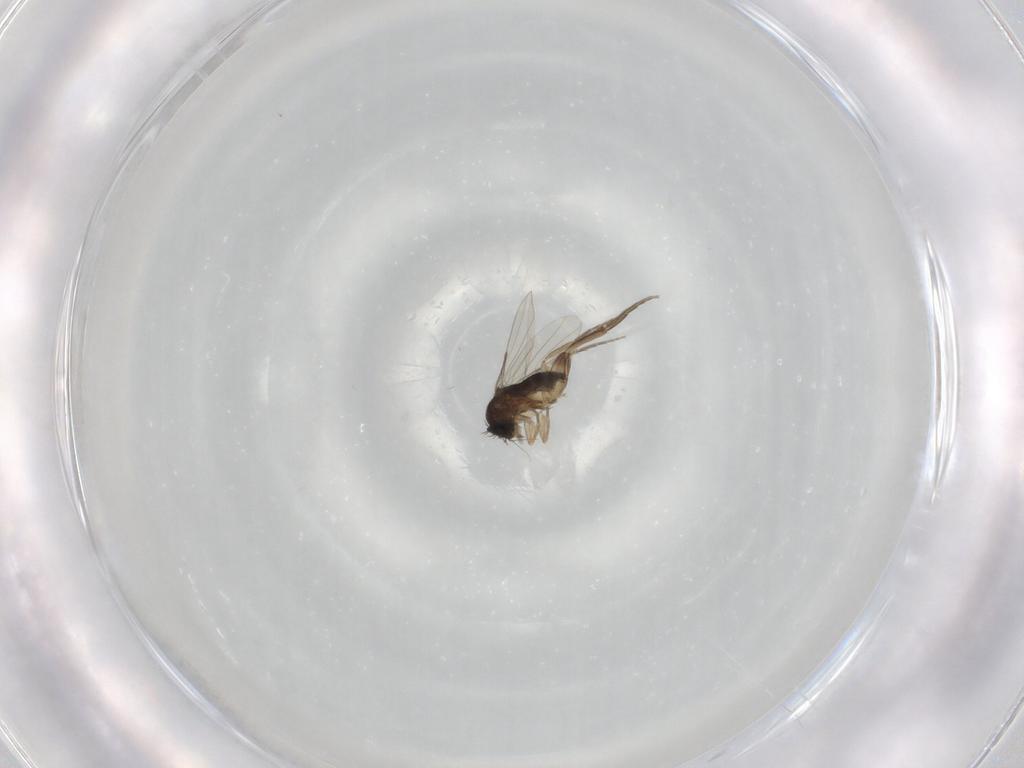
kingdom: Animalia
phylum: Arthropoda
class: Insecta
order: Diptera
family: Phoridae
